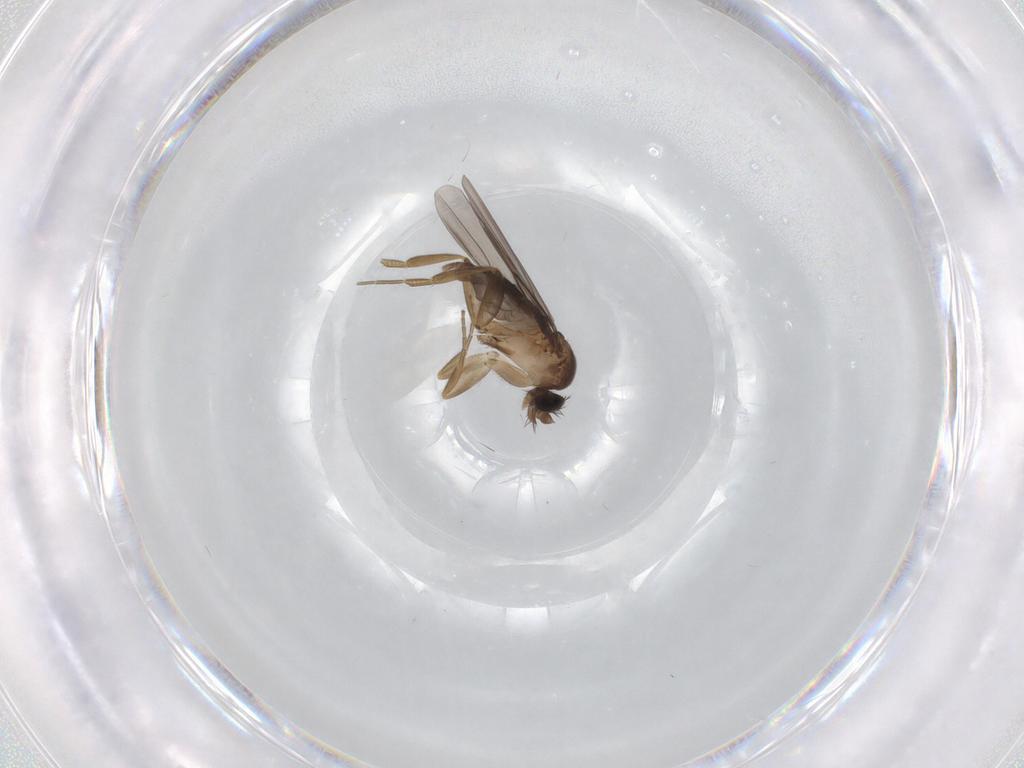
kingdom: Animalia
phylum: Arthropoda
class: Insecta
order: Diptera
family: Phoridae
